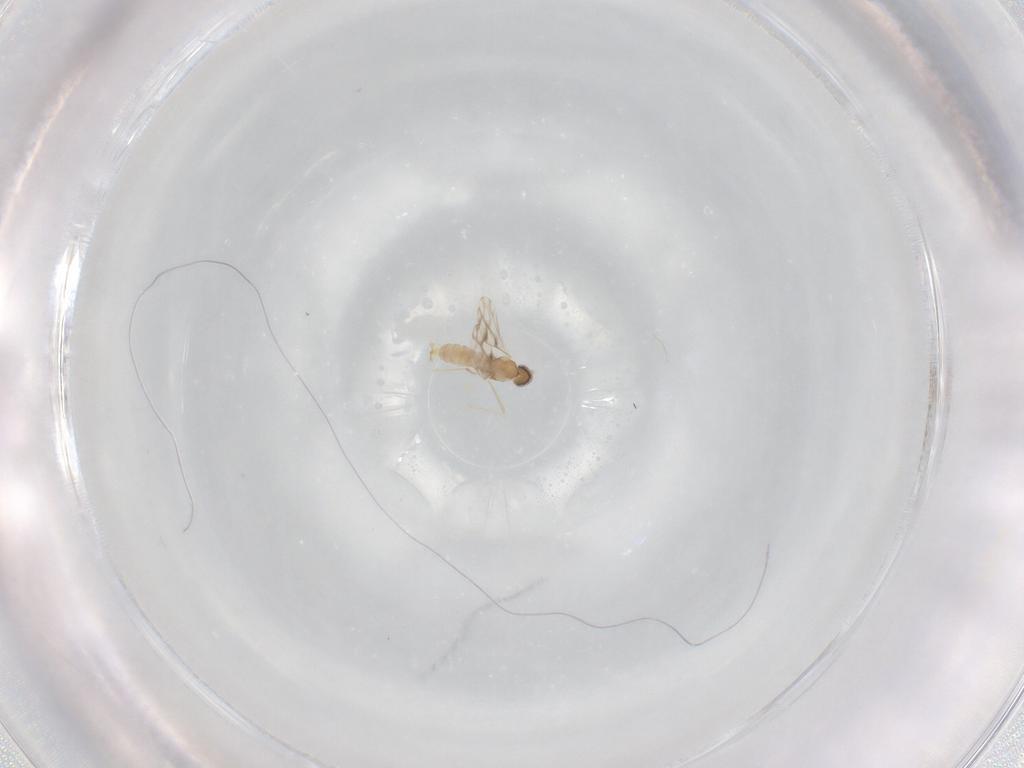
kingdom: Animalia
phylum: Arthropoda
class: Insecta
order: Diptera
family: Cecidomyiidae
